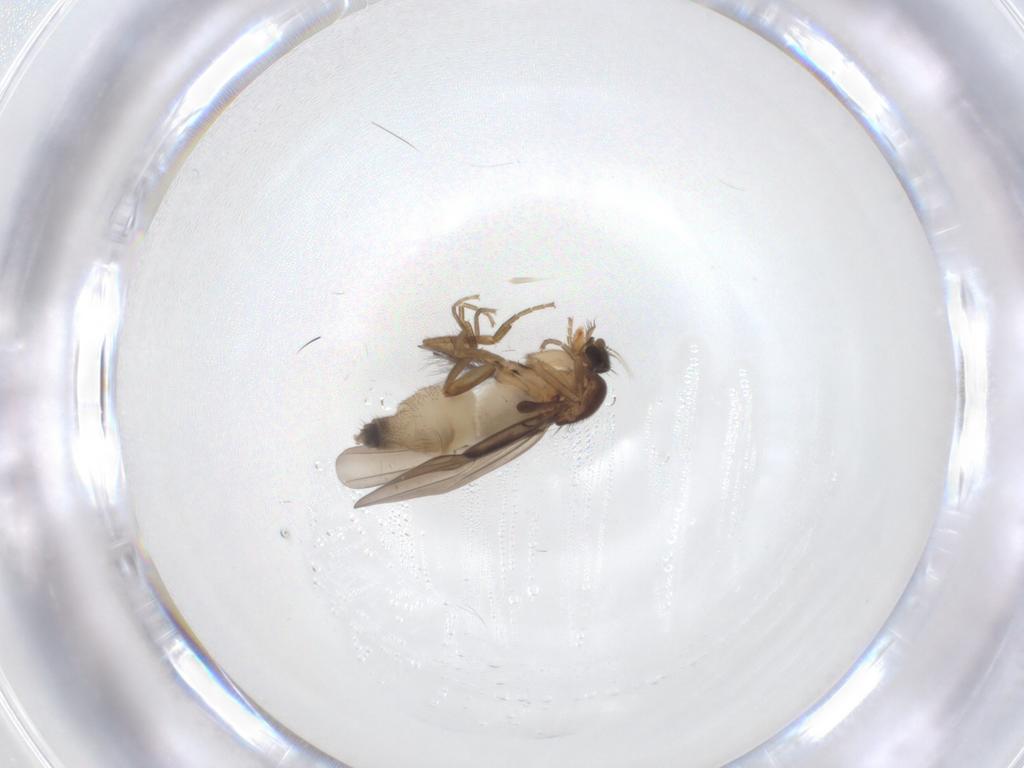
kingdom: Animalia
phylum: Arthropoda
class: Insecta
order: Diptera
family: Phoridae
